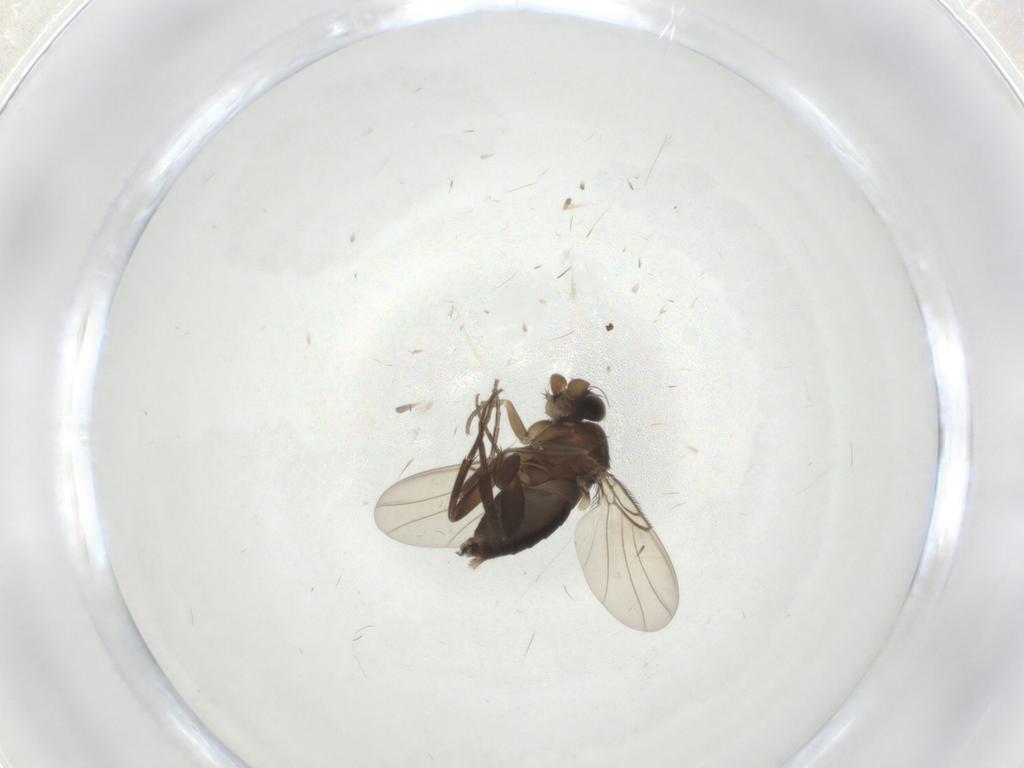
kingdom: Animalia
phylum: Arthropoda
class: Insecta
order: Diptera
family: Phoridae
